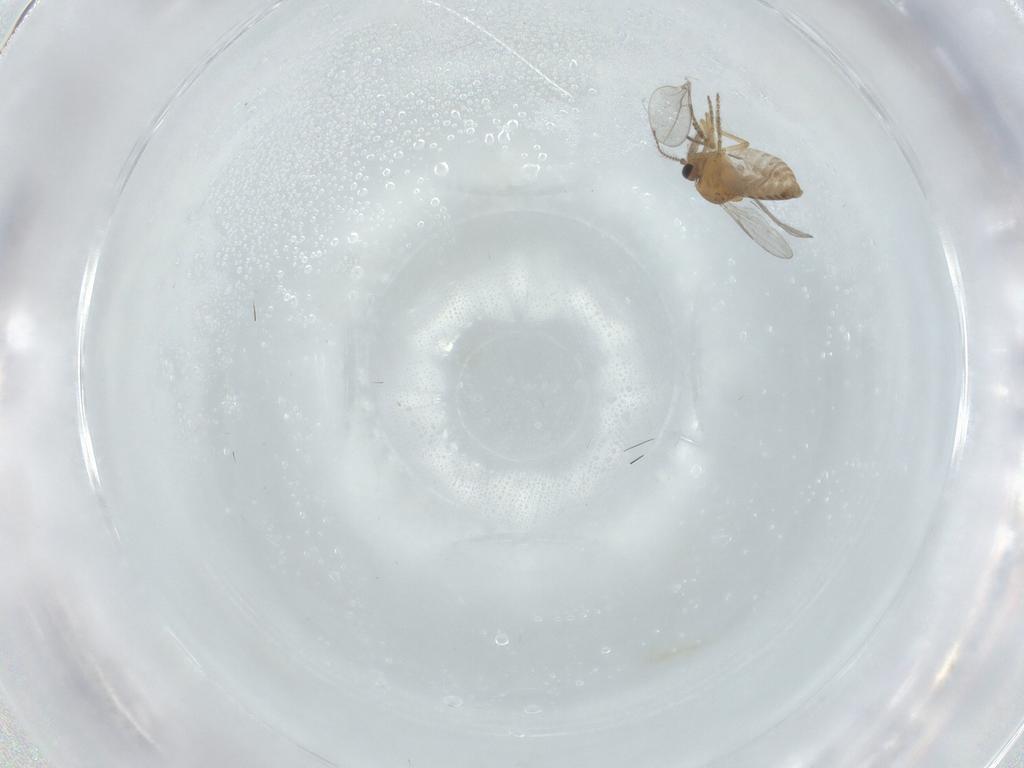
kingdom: Animalia
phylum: Arthropoda
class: Insecta
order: Diptera
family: Ceratopogonidae
